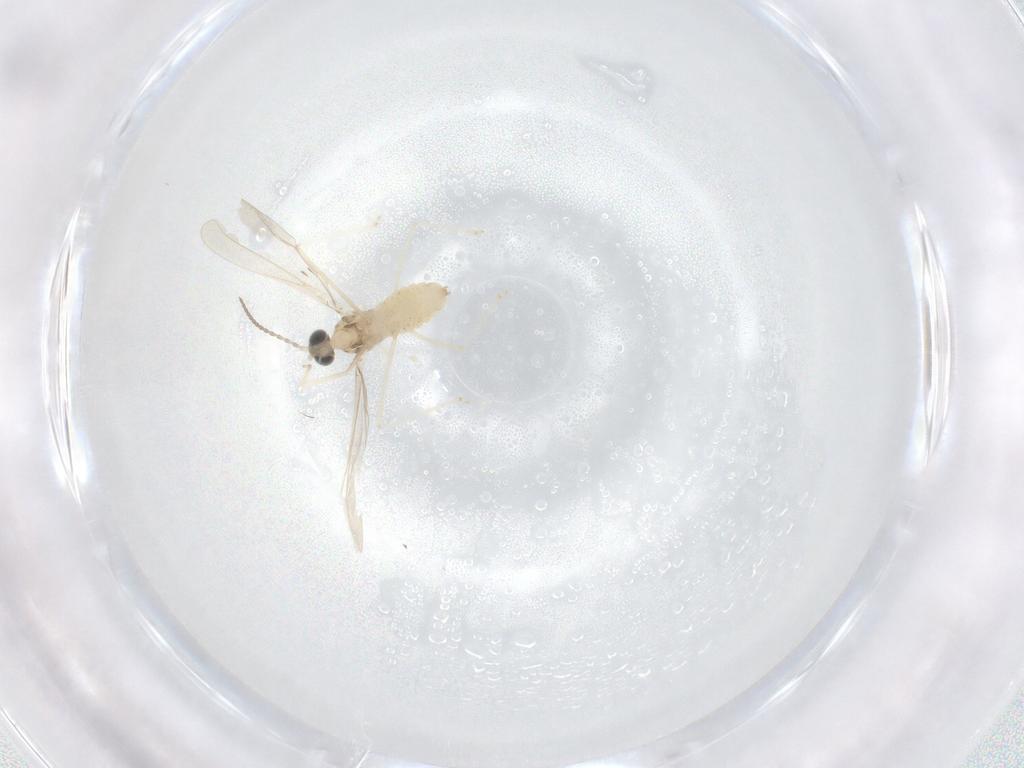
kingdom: Animalia
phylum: Arthropoda
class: Insecta
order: Diptera
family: Cecidomyiidae
